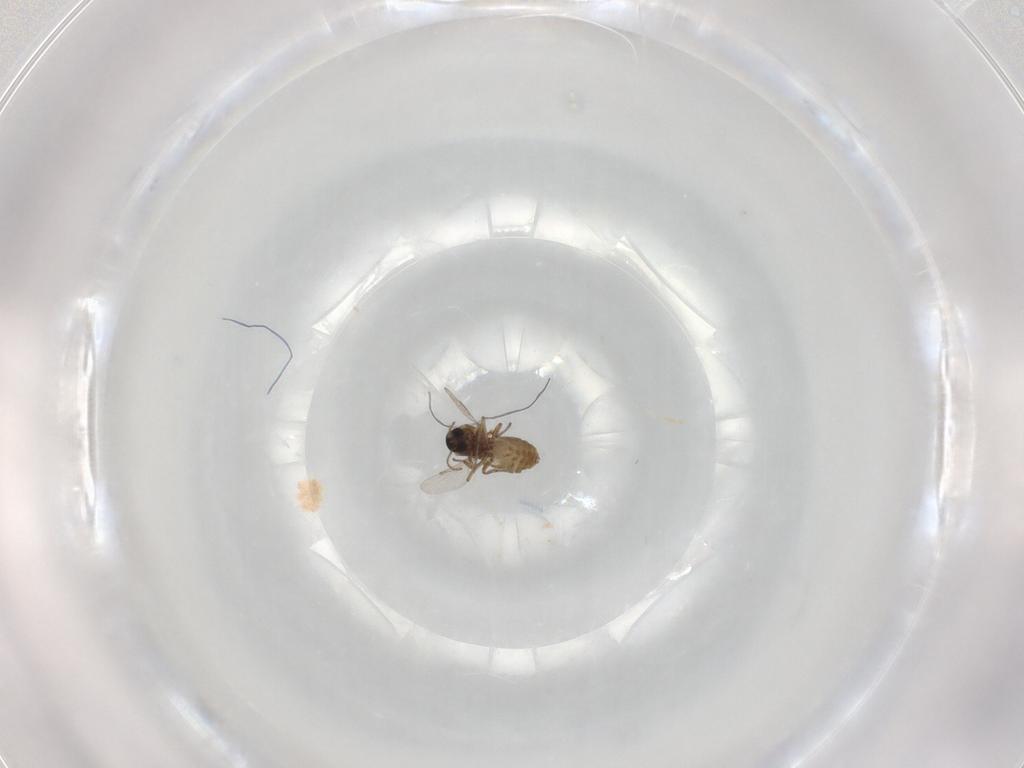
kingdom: Animalia
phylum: Arthropoda
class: Insecta
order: Diptera
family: Ceratopogonidae
